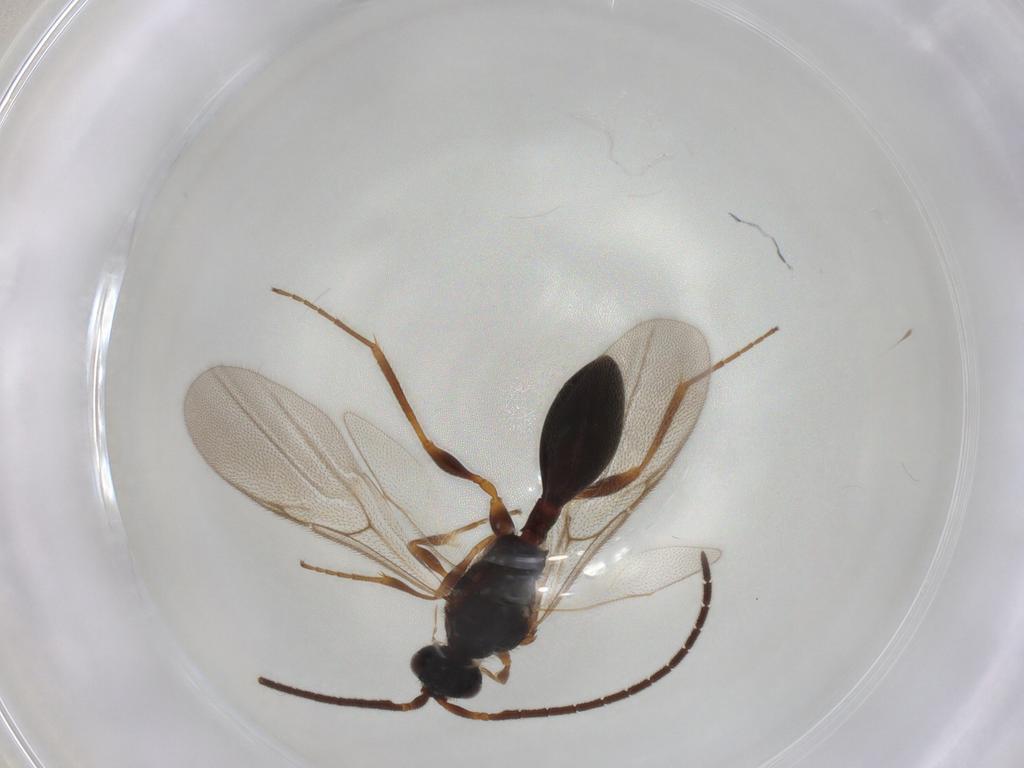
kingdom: Animalia
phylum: Arthropoda
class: Insecta
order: Hymenoptera
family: Diapriidae
